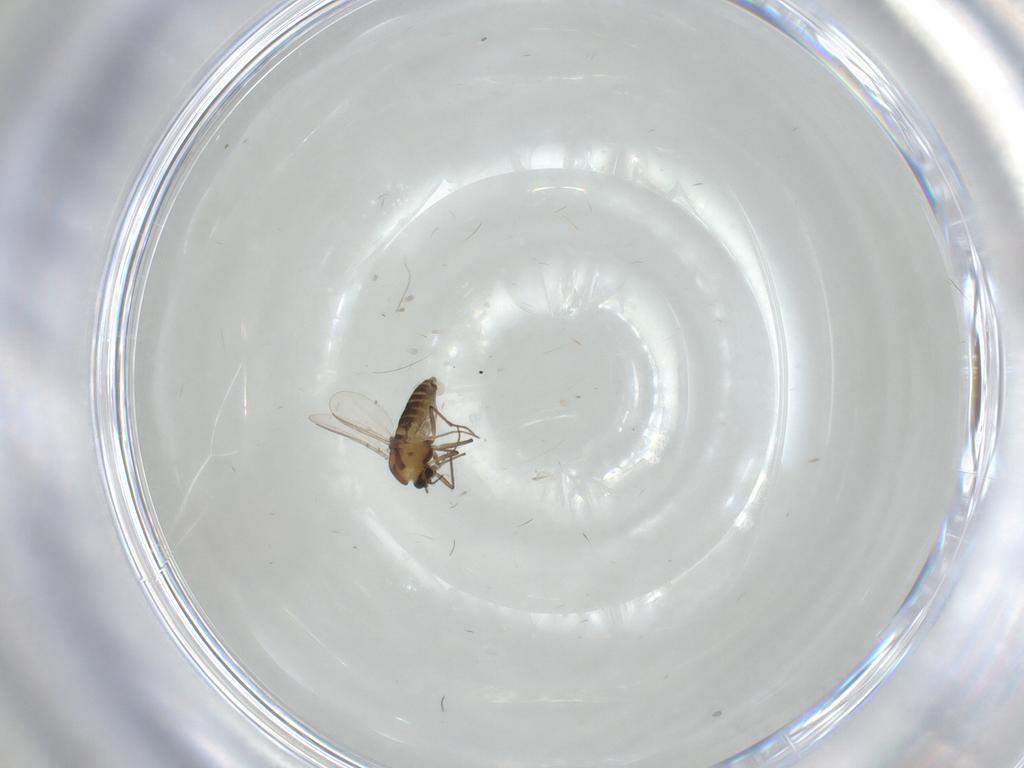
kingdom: Animalia
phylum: Arthropoda
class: Insecta
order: Diptera
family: Chironomidae
